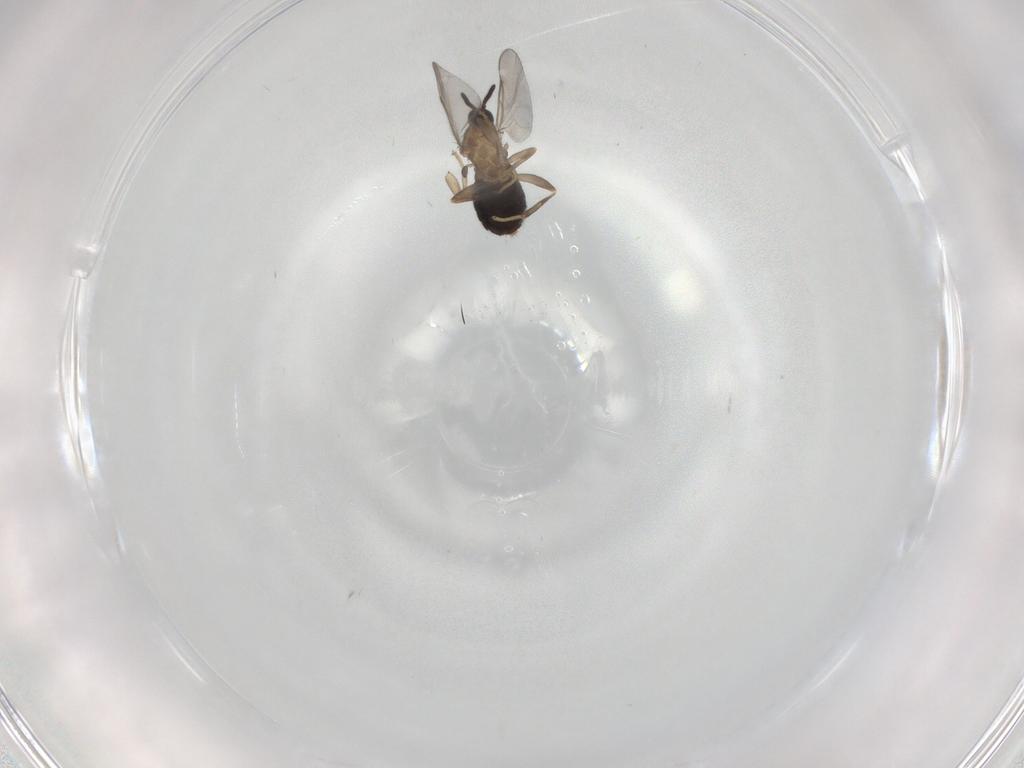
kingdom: Animalia
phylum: Arthropoda
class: Insecta
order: Diptera
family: Scatopsidae
